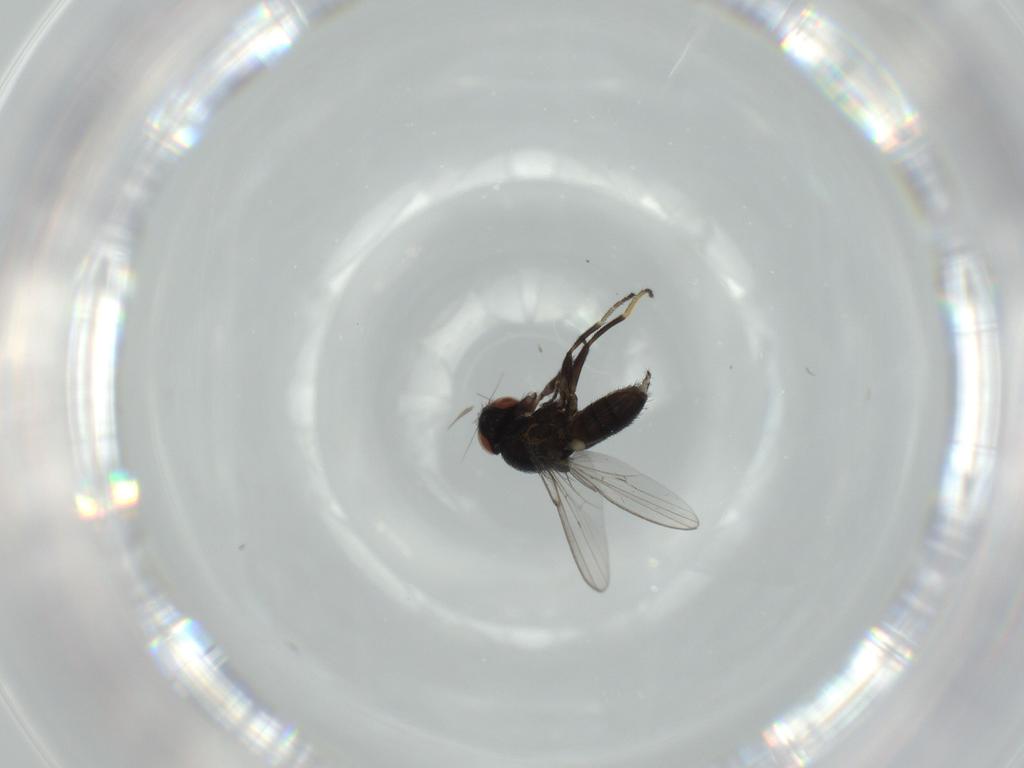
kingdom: Animalia
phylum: Arthropoda
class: Insecta
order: Diptera
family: Milichiidae
